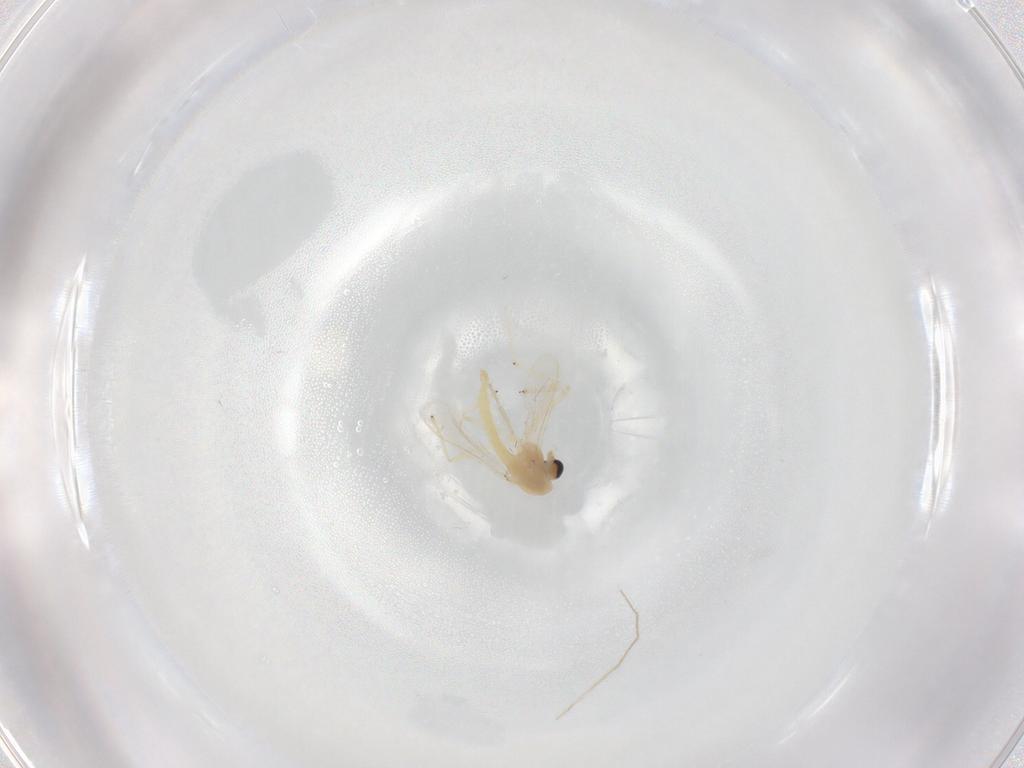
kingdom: Animalia
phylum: Arthropoda
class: Insecta
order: Diptera
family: Chironomidae
